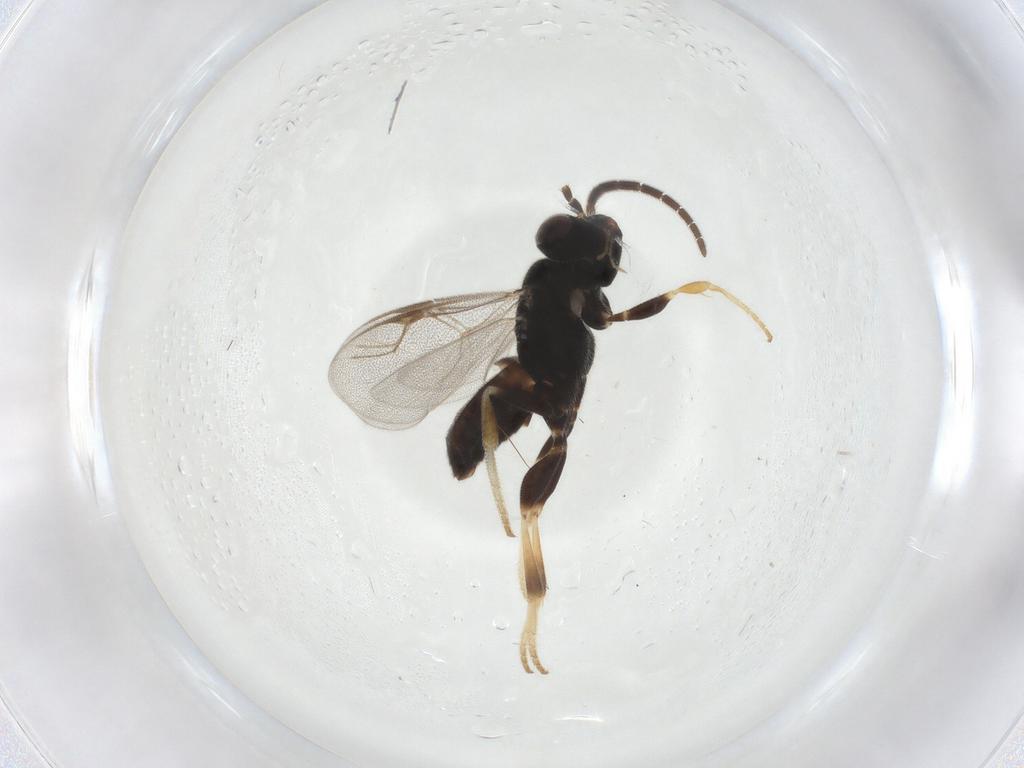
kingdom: Animalia
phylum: Arthropoda
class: Insecta
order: Hymenoptera
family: Dryinidae
